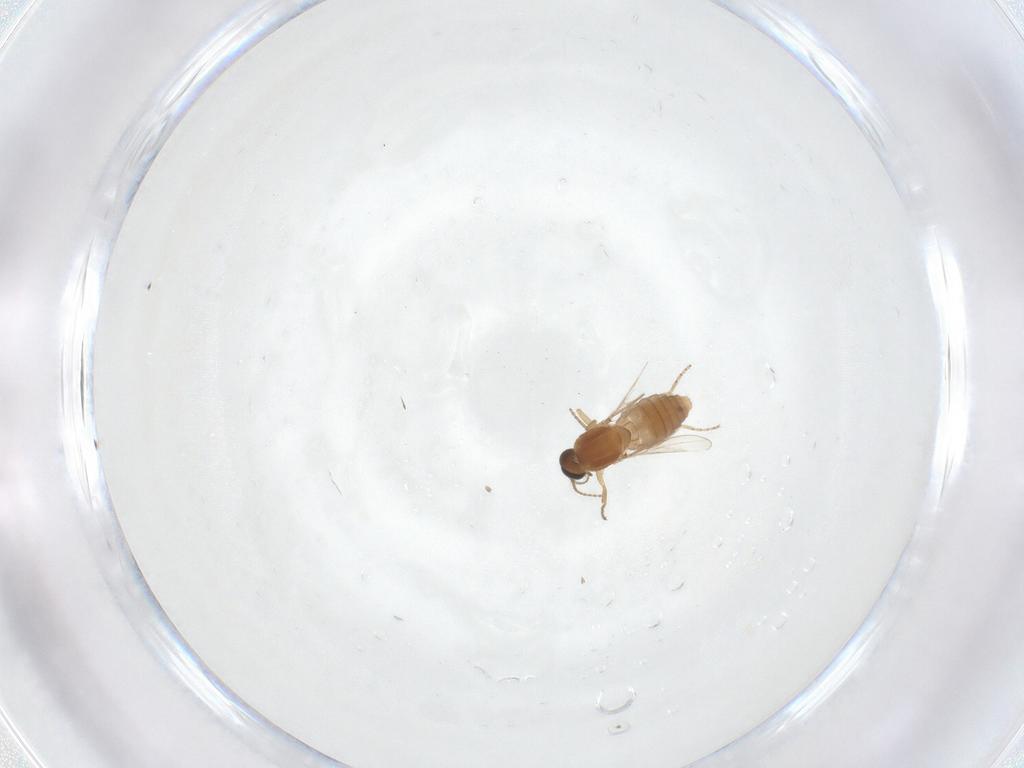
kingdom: Animalia
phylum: Arthropoda
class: Insecta
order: Diptera
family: Ceratopogonidae
